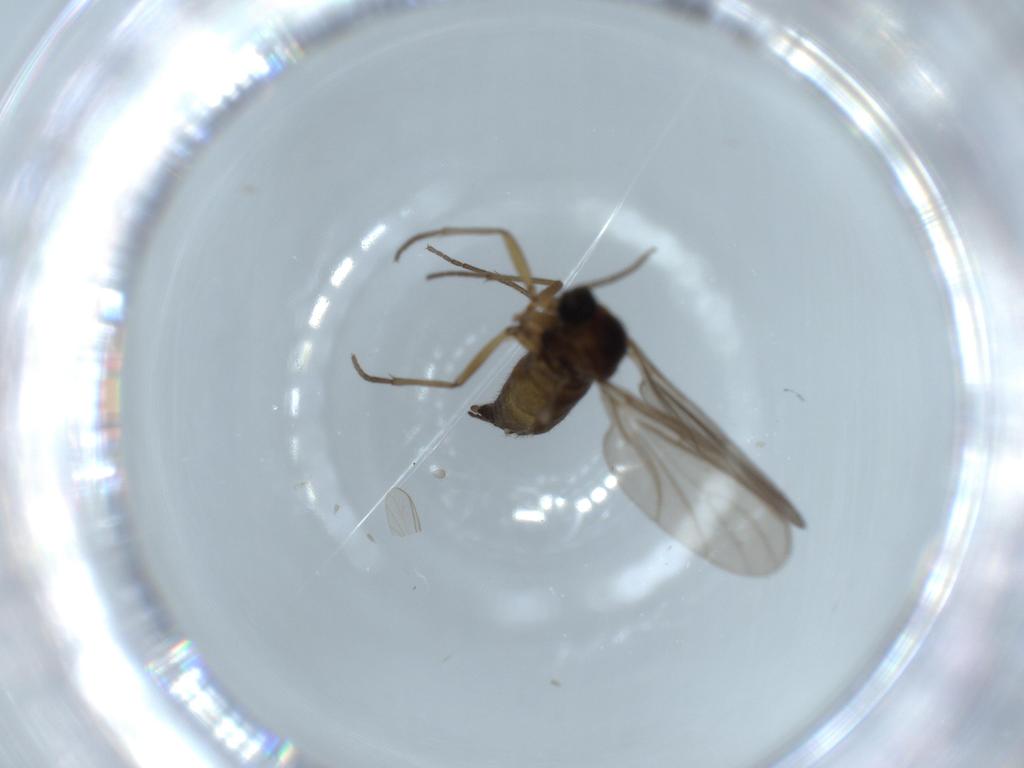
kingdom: Animalia
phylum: Arthropoda
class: Insecta
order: Diptera
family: Sciaridae
